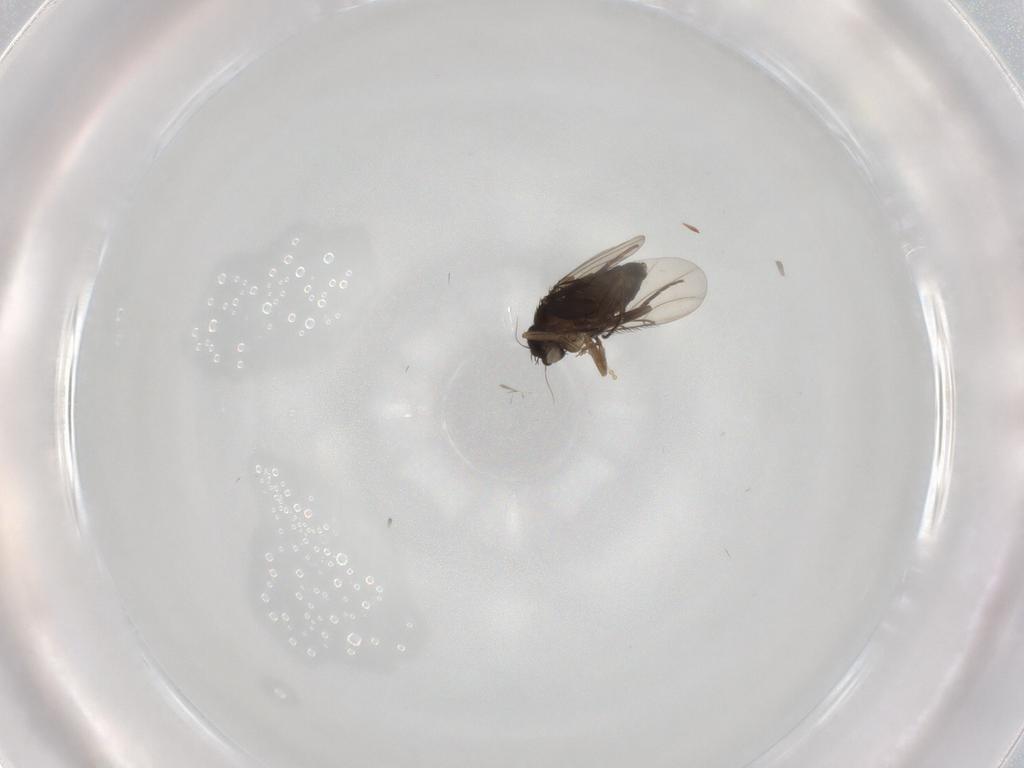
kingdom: Animalia
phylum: Arthropoda
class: Insecta
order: Diptera
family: Phoridae
